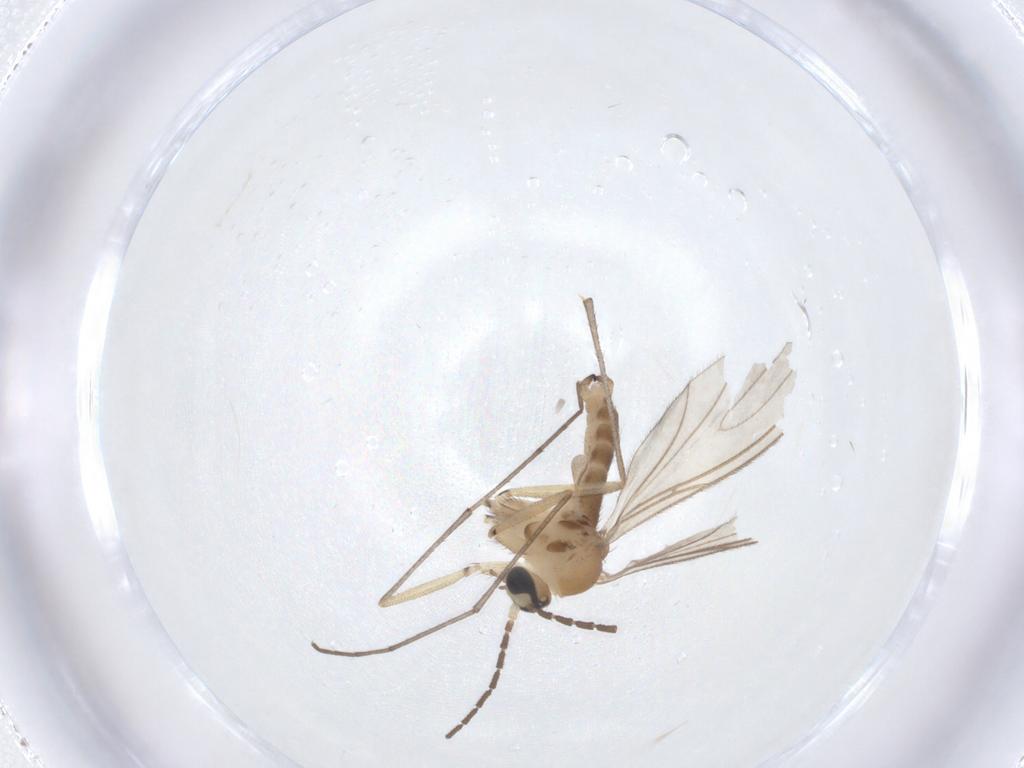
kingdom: Animalia
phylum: Arthropoda
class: Insecta
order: Diptera
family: Sciaridae
